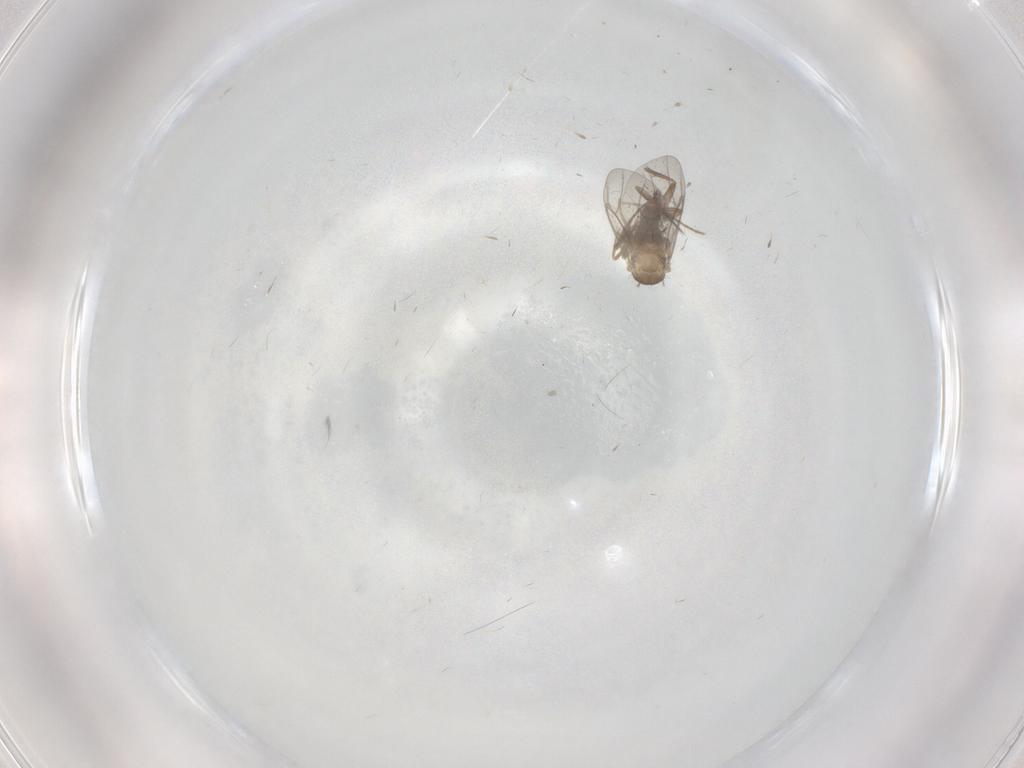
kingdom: Animalia
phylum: Arthropoda
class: Insecta
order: Diptera
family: Ceratopogonidae
